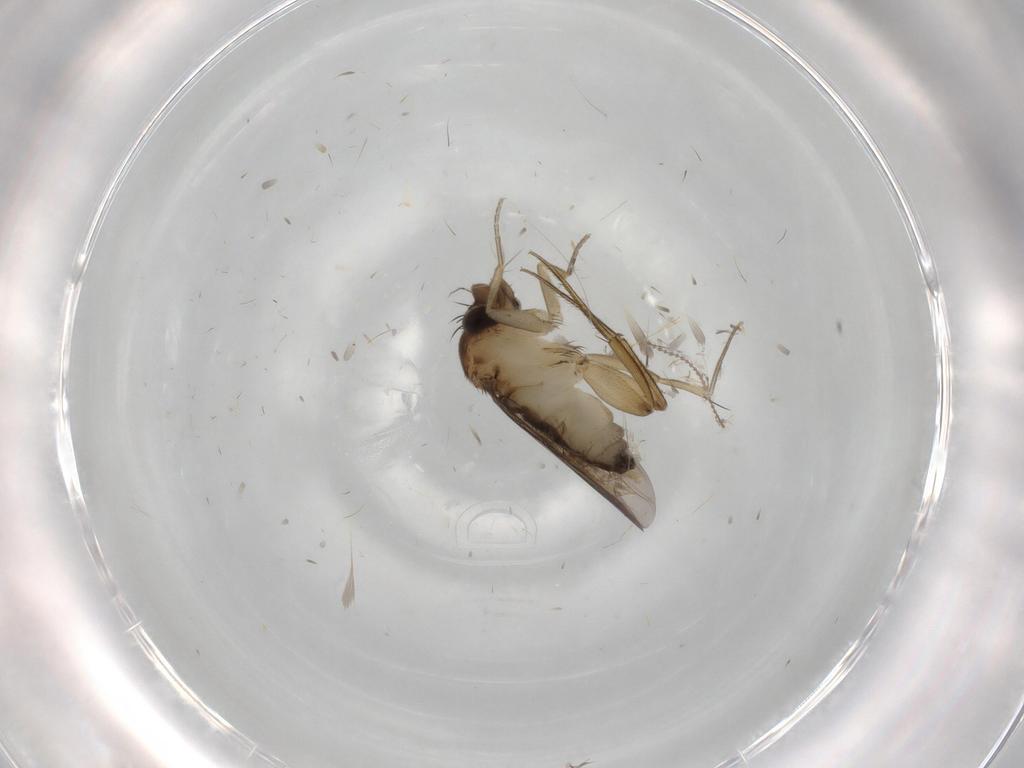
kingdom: Animalia
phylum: Arthropoda
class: Insecta
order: Diptera
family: Phoridae
